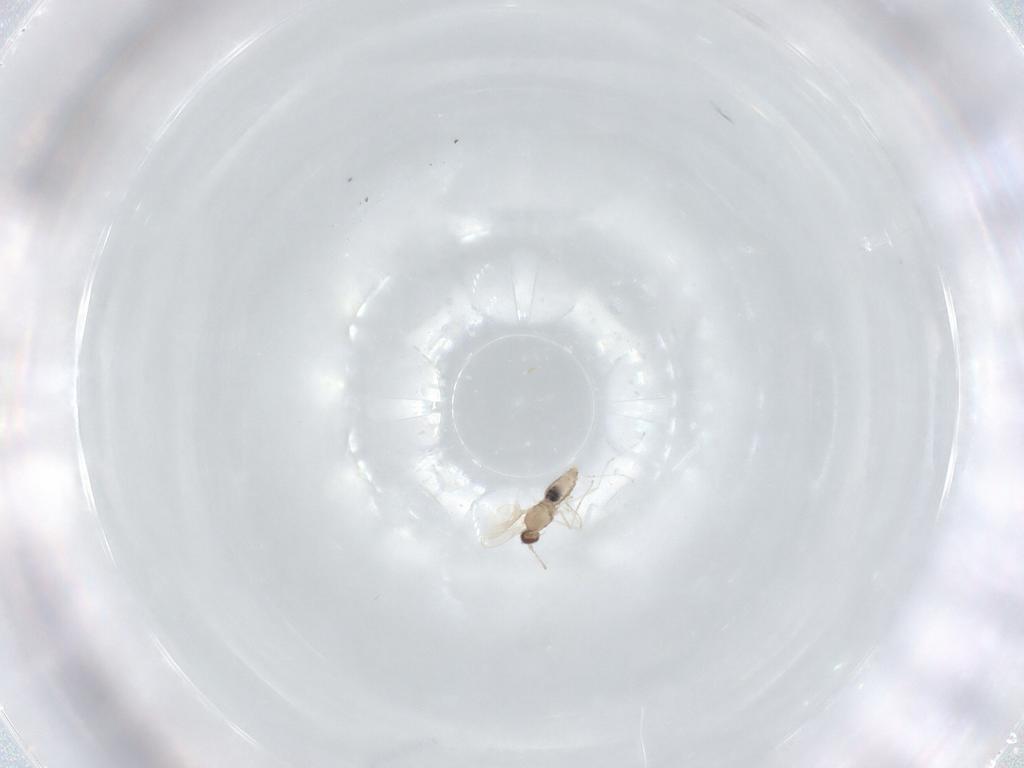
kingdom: Animalia
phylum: Arthropoda
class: Insecta
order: Diptera
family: Cecidomyiidae
